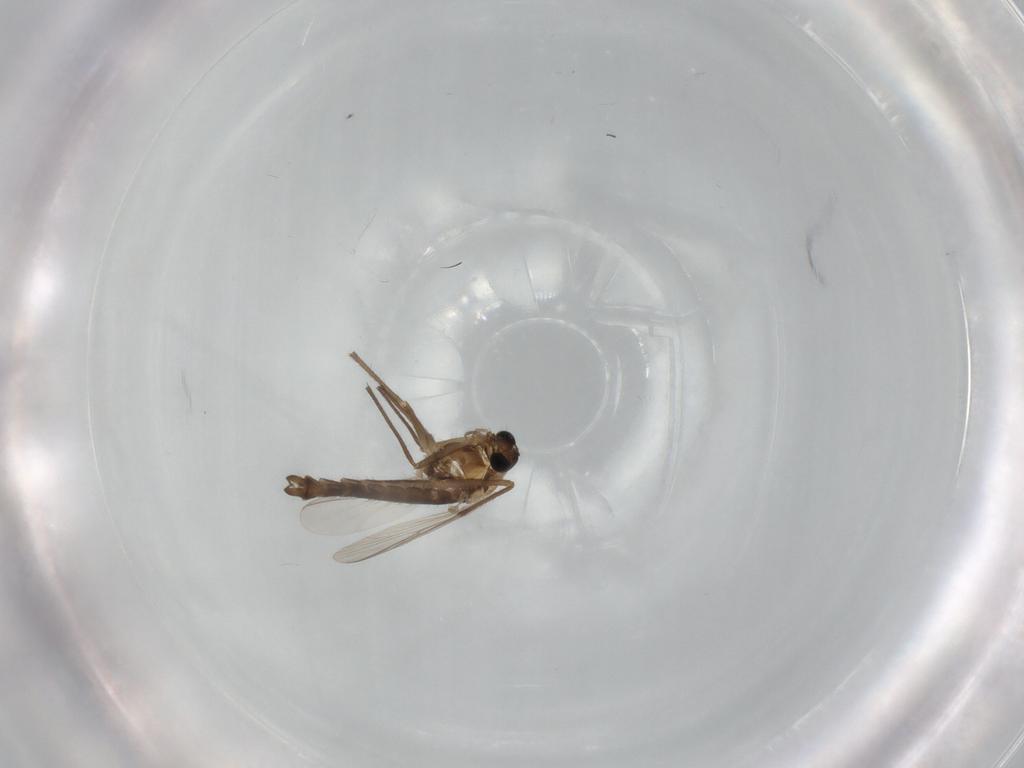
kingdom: Animalia
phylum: Arthropoda
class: Insecta
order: Diptera
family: Chironomidae
